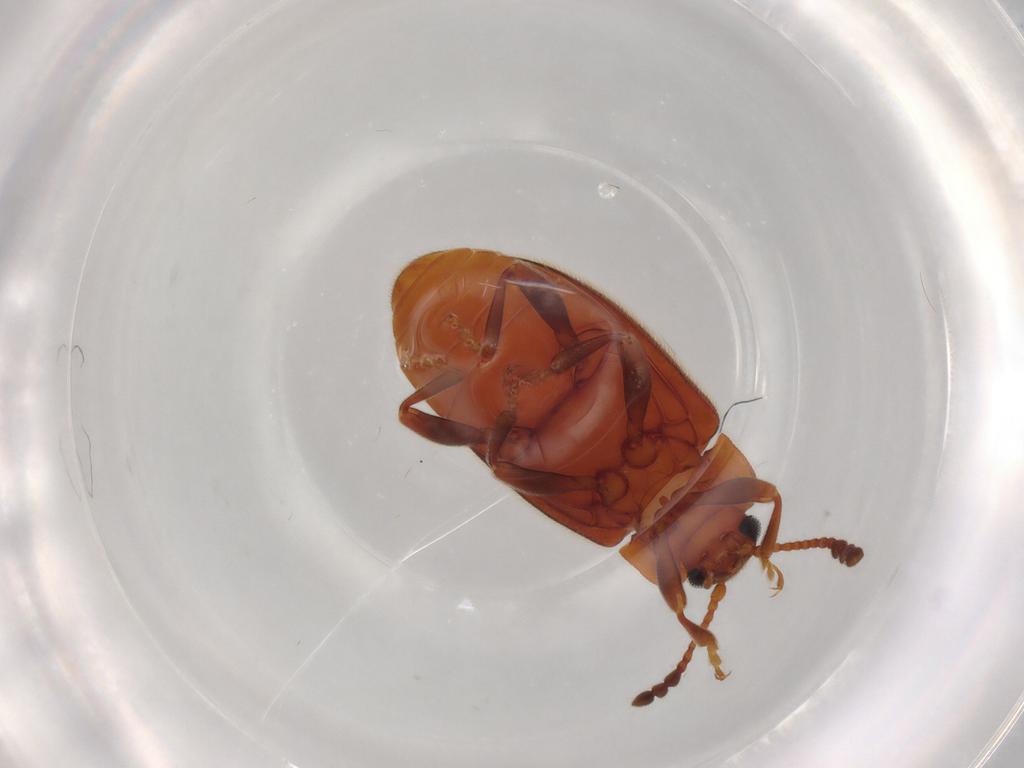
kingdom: Animalia
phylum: Arthropoda
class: Insecta
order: Coleoptera
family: Endomychidae
